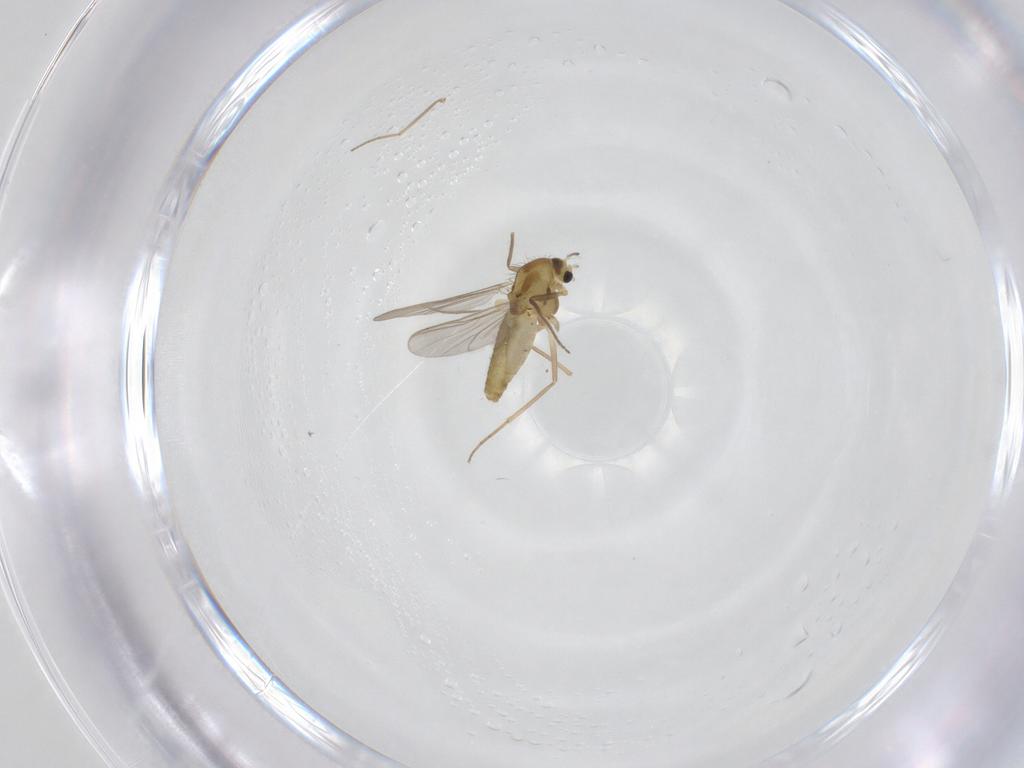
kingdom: Animalia
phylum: Arthropoda
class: Insecta
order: Diptera
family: Chironomidae
